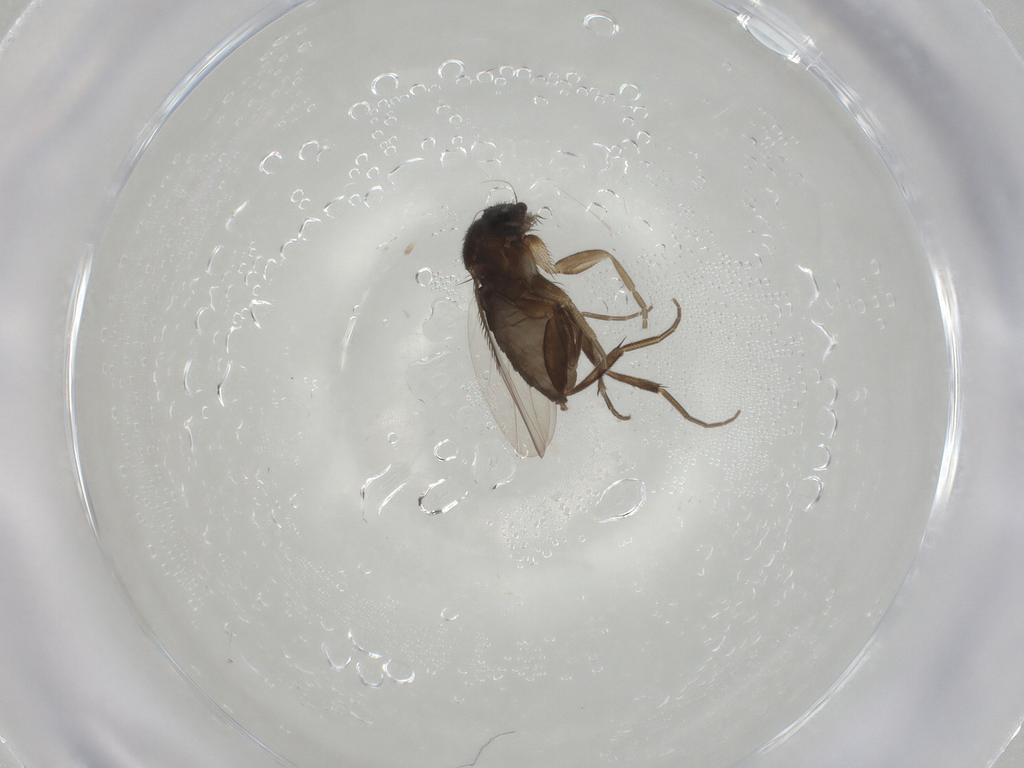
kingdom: Animalia
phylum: Arthropoda
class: Insecta
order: Diptera
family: Phoridae
